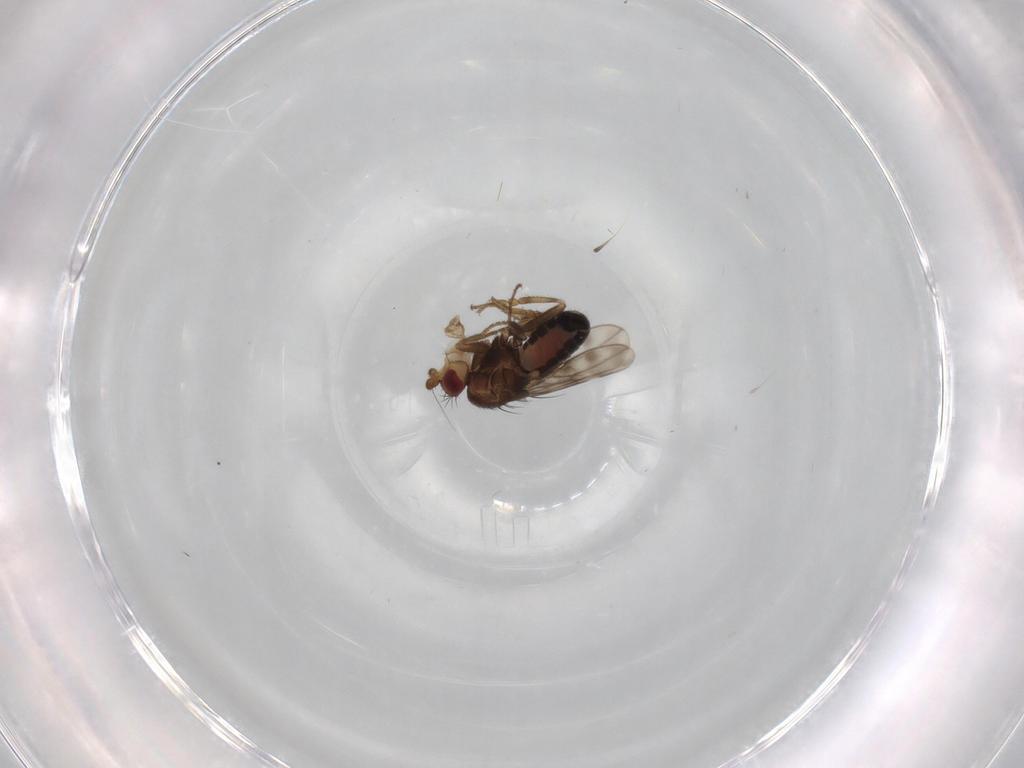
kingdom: Animalia
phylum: Arthropoda
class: Insecta
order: Diptera
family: Sphaeroceridae
